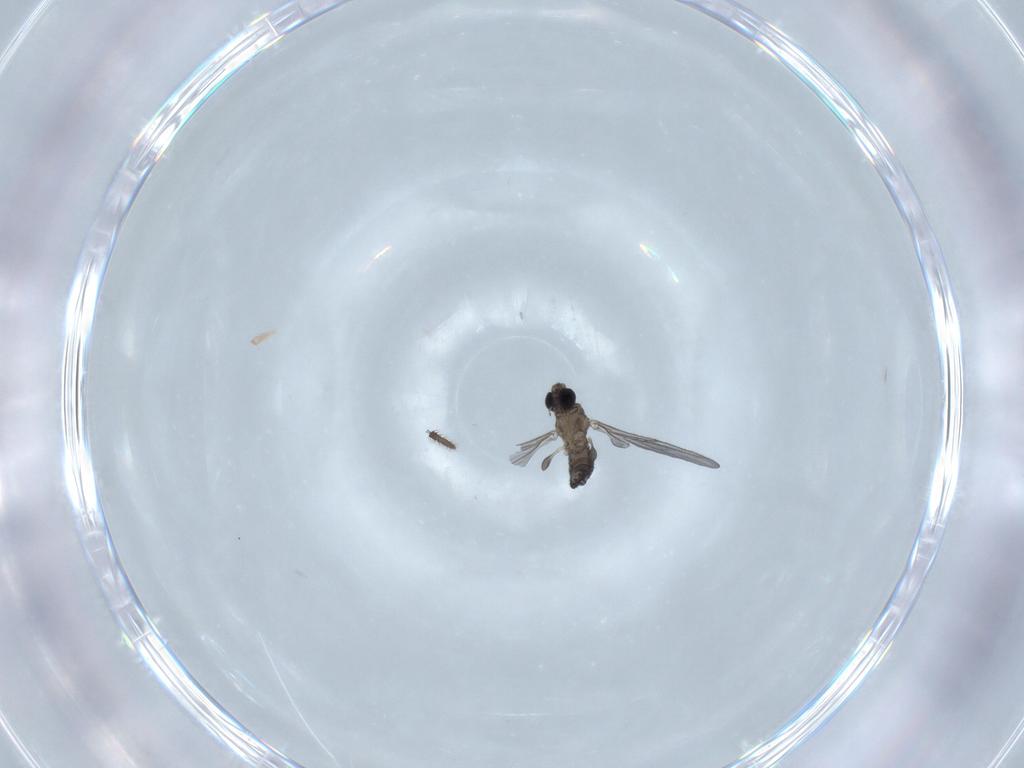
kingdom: Animalia
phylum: Arthropoda
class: Insecta
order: Diptera
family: Sciaridae
